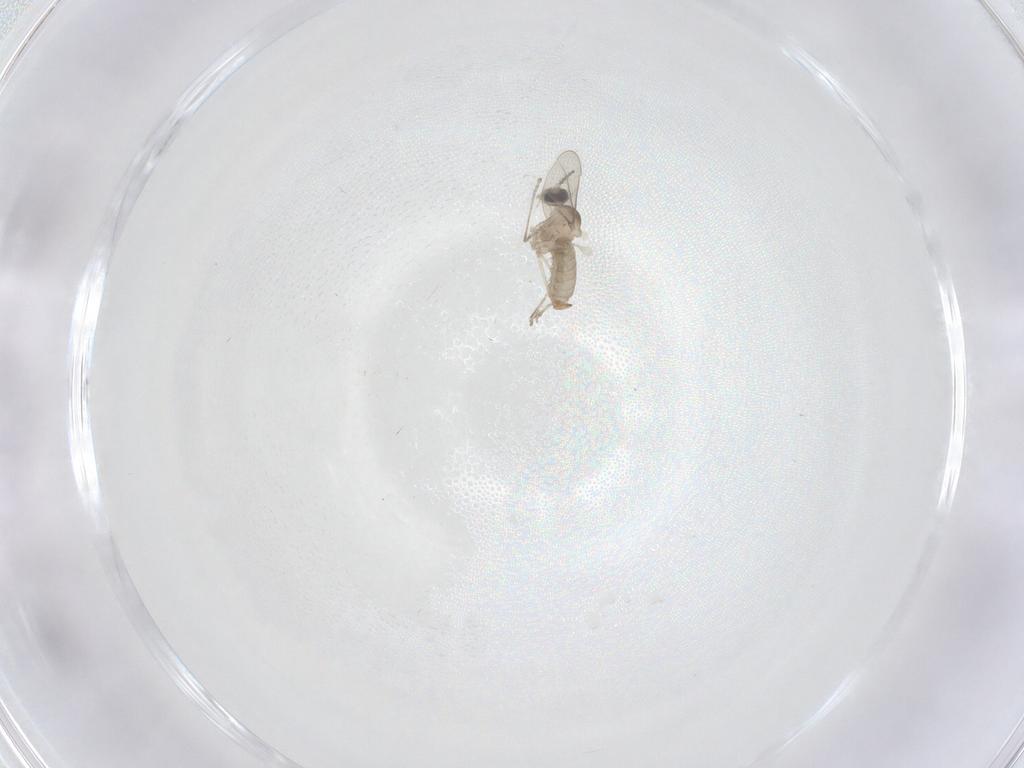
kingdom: Animalia
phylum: Arthropoda
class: Insecta
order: Diptera
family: Cecidomyiidae
